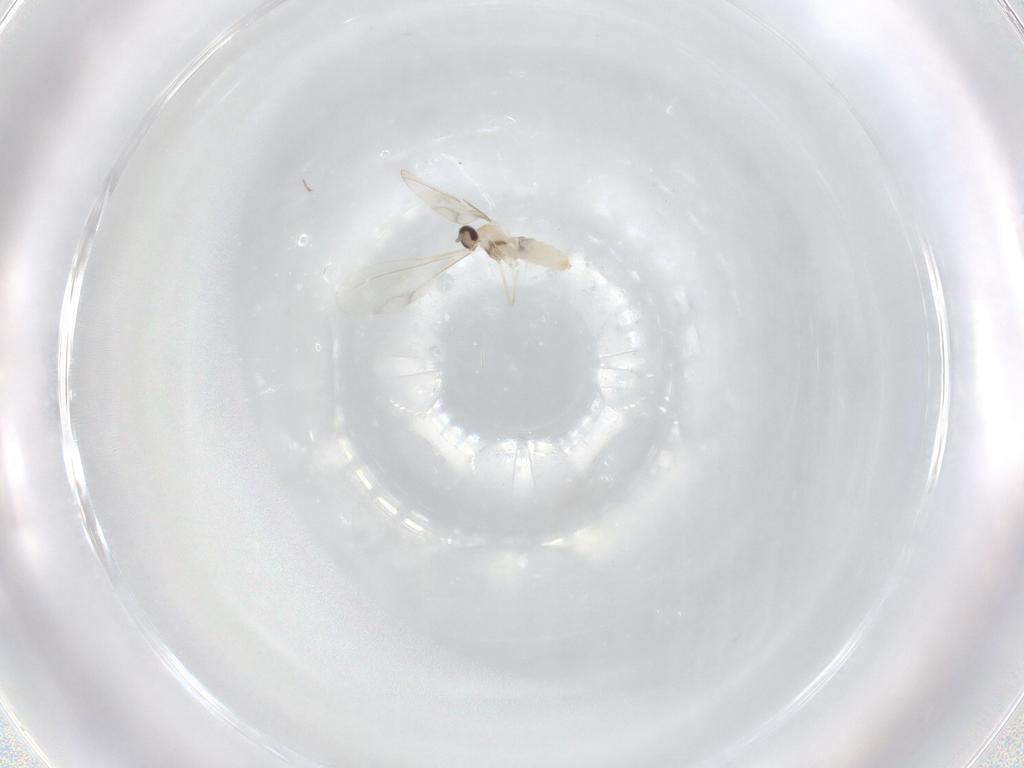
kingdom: Animalia
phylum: Arthropoda
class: Insecta
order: Diptera
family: Cecidomyiidae
